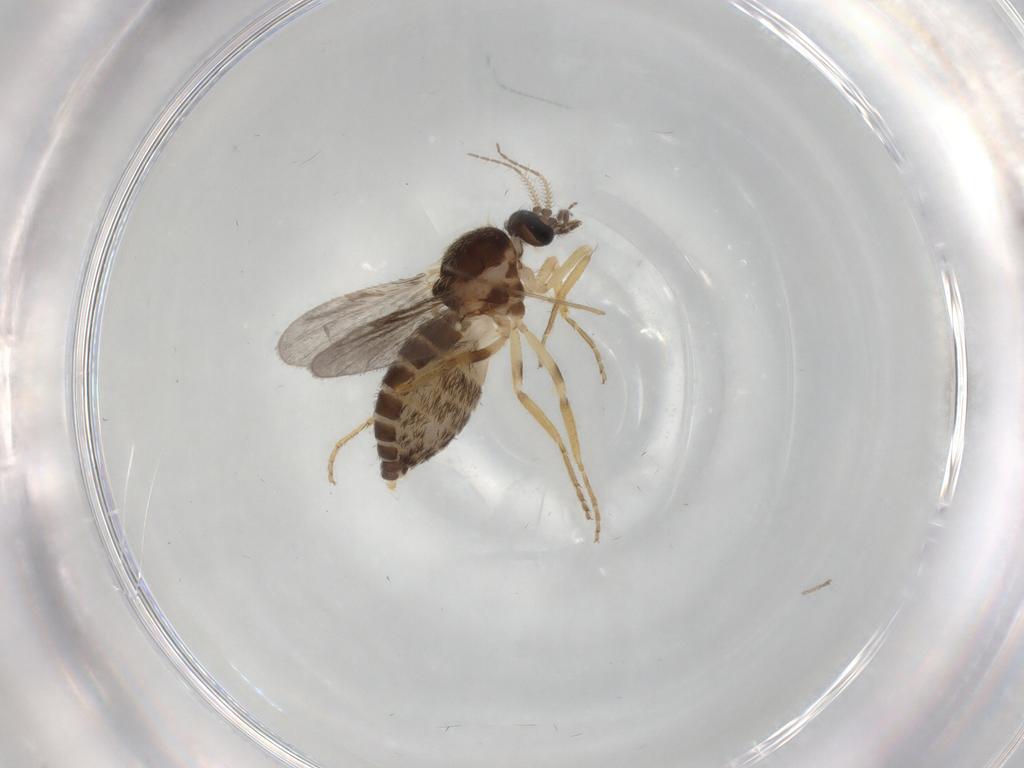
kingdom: Animalia
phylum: Arthropoda
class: Insecta
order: Diptera
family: Ceratopogonidae
